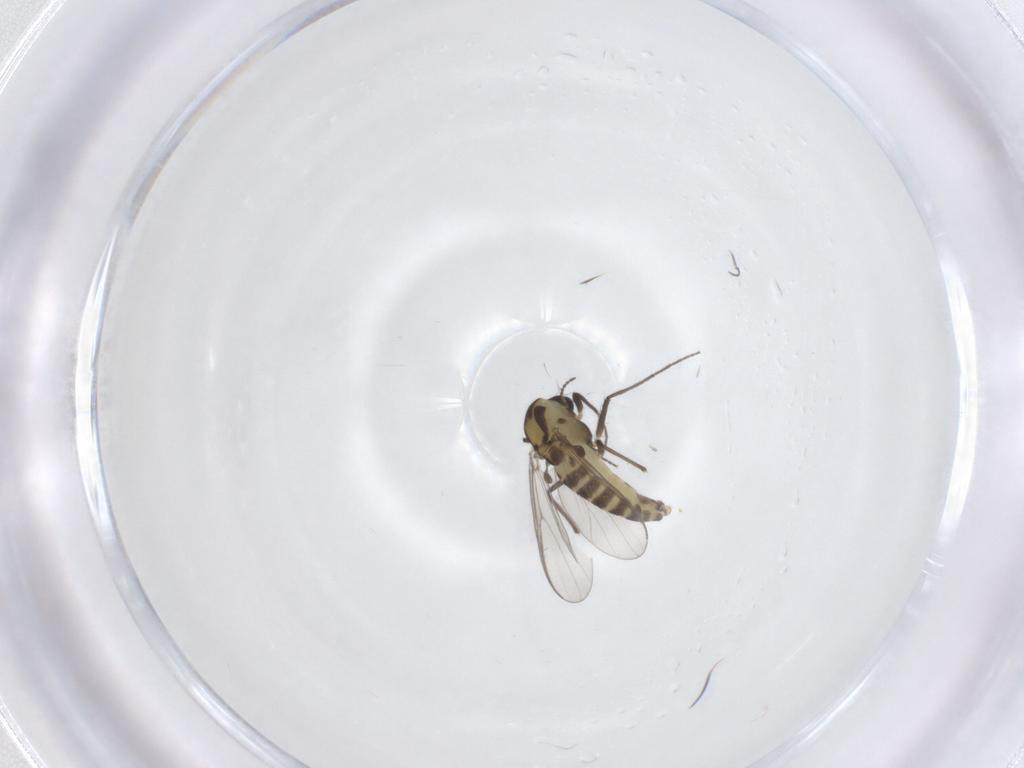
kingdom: Animalia
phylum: Arthropoda
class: Insecta
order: Diptera
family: Chironomidae
